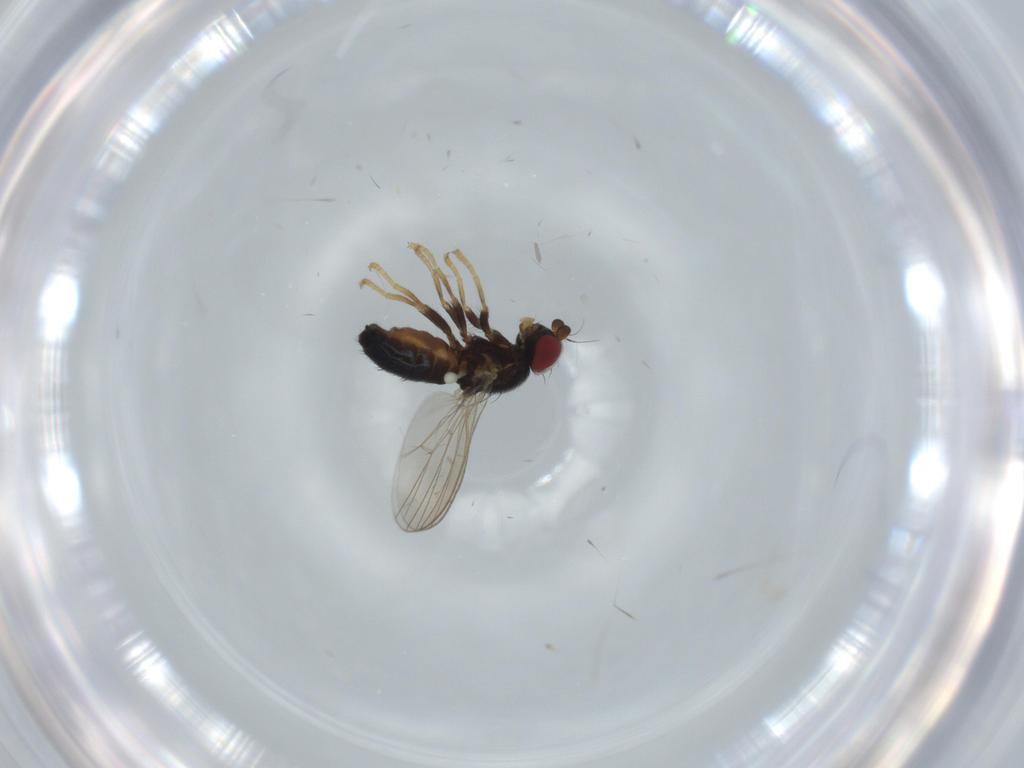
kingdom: Animalia
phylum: Arthropoda
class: Insecta
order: Diptera
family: Chamaemyiidae
